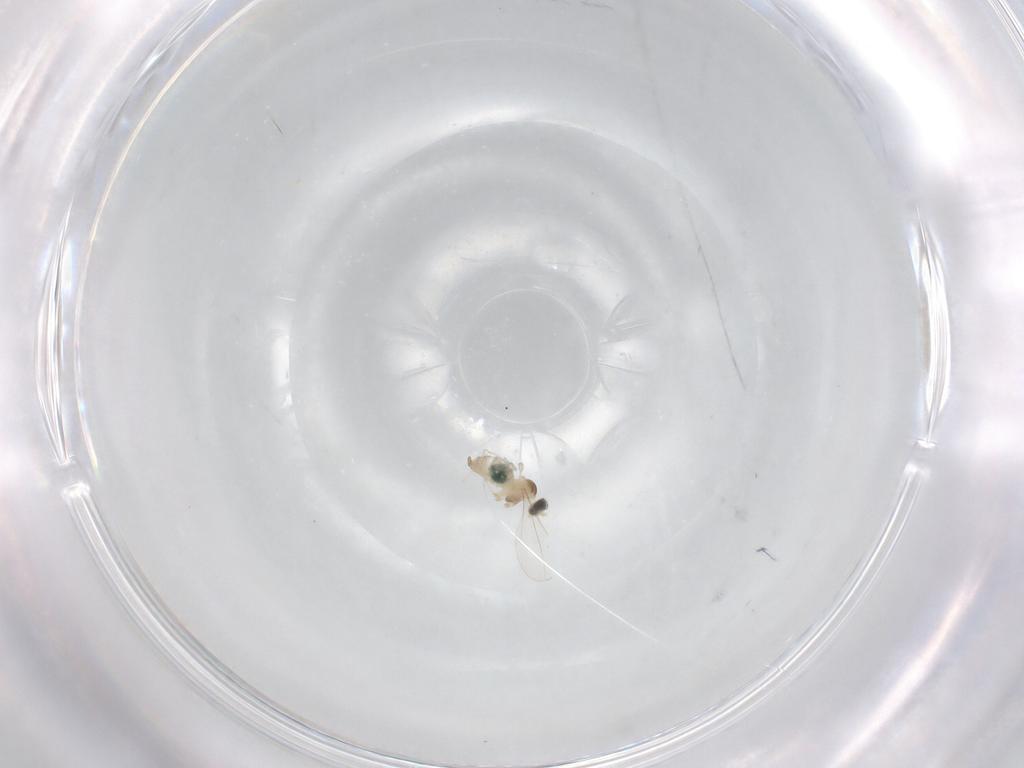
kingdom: Animalia
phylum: Arthropoda
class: Insecta
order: Diptera
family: Cecidomyiidae
